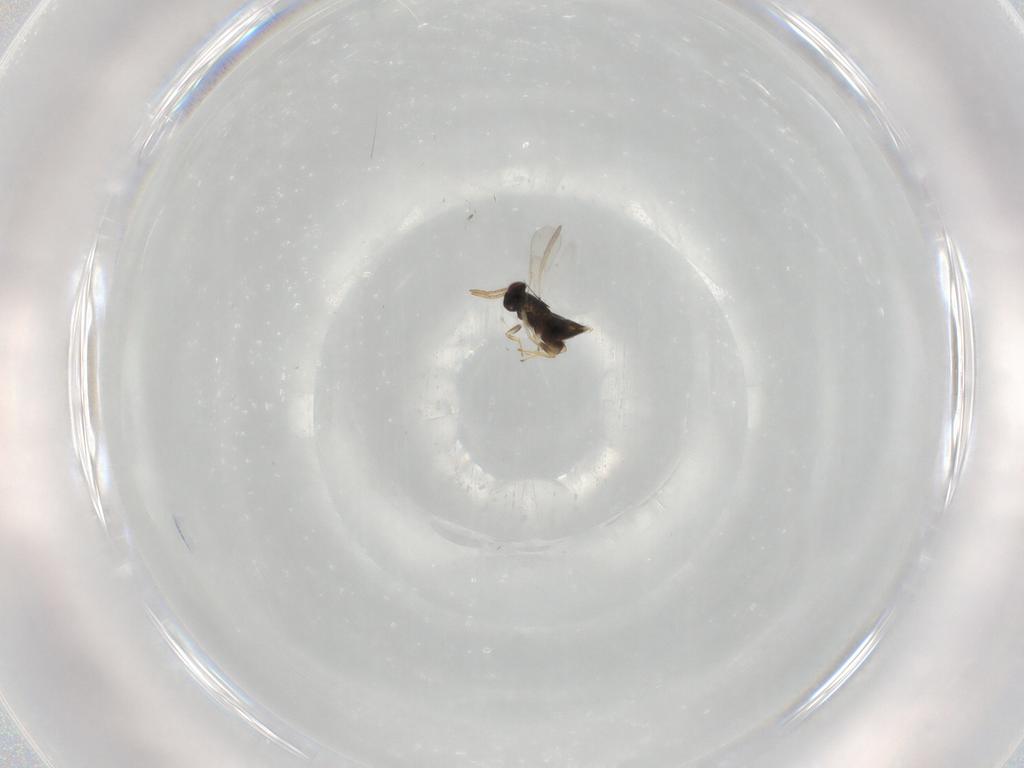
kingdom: Animalia
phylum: Arthropoda
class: Insecta
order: Hymenoptera
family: Aphelinidae
